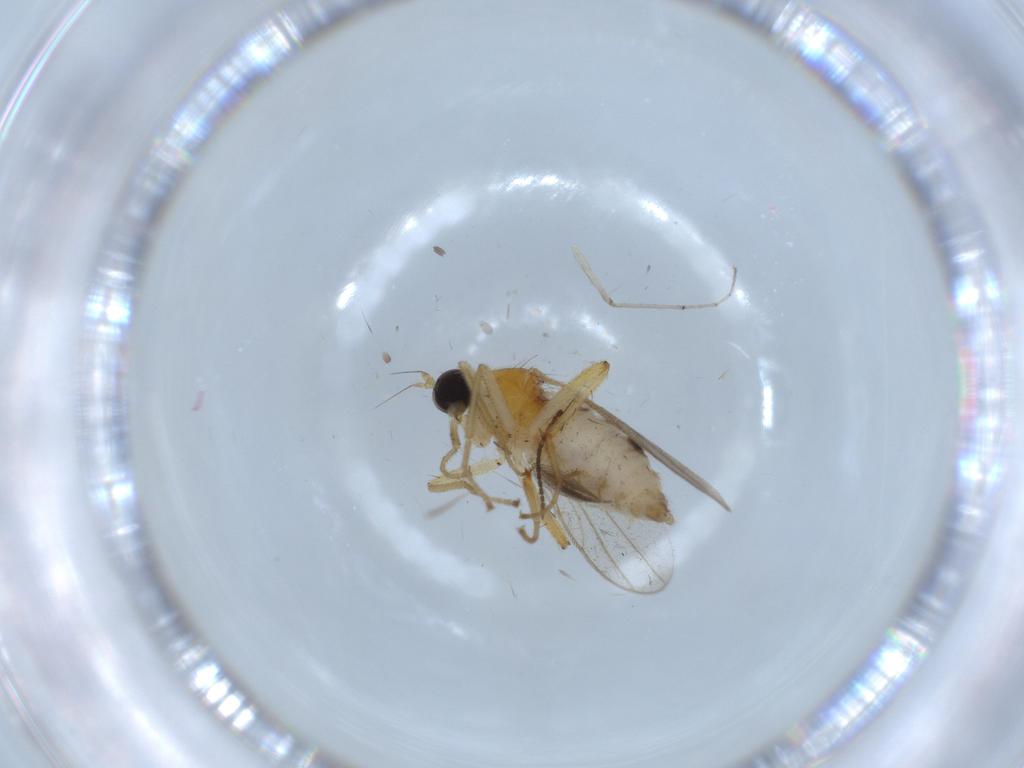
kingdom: Animalia
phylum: Arthropoda
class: Insecta
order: Diptera
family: Hybotidae
